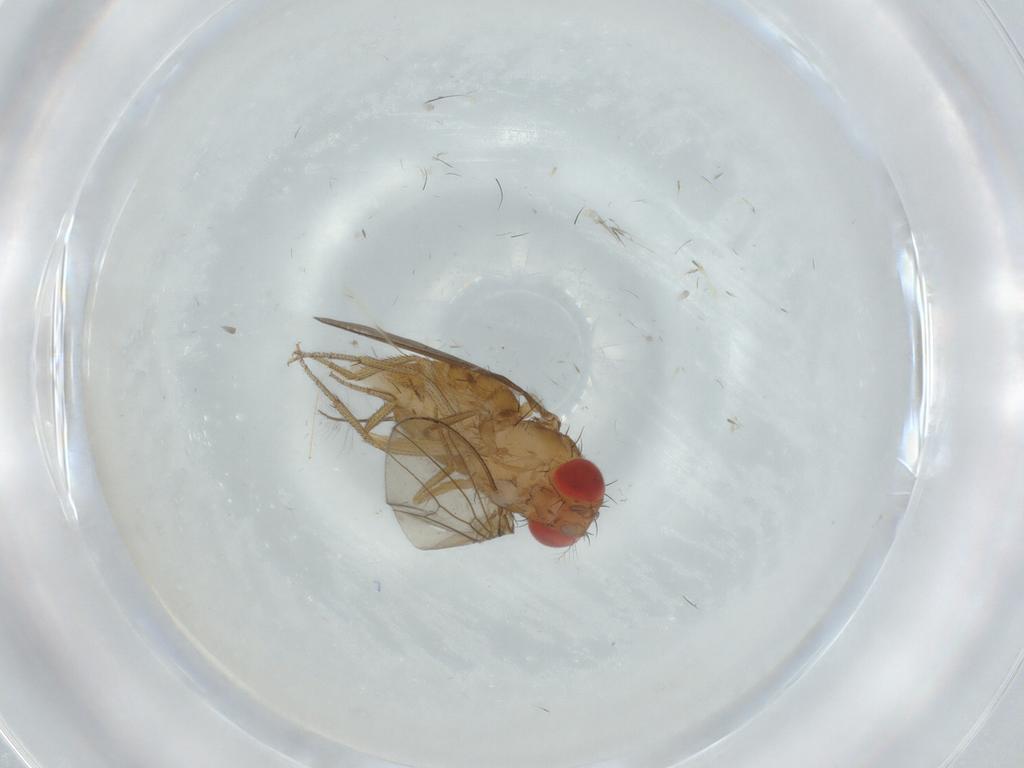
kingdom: Animalia
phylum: Arthropoda
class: Insecta
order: Diptera
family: Drosophilidae
